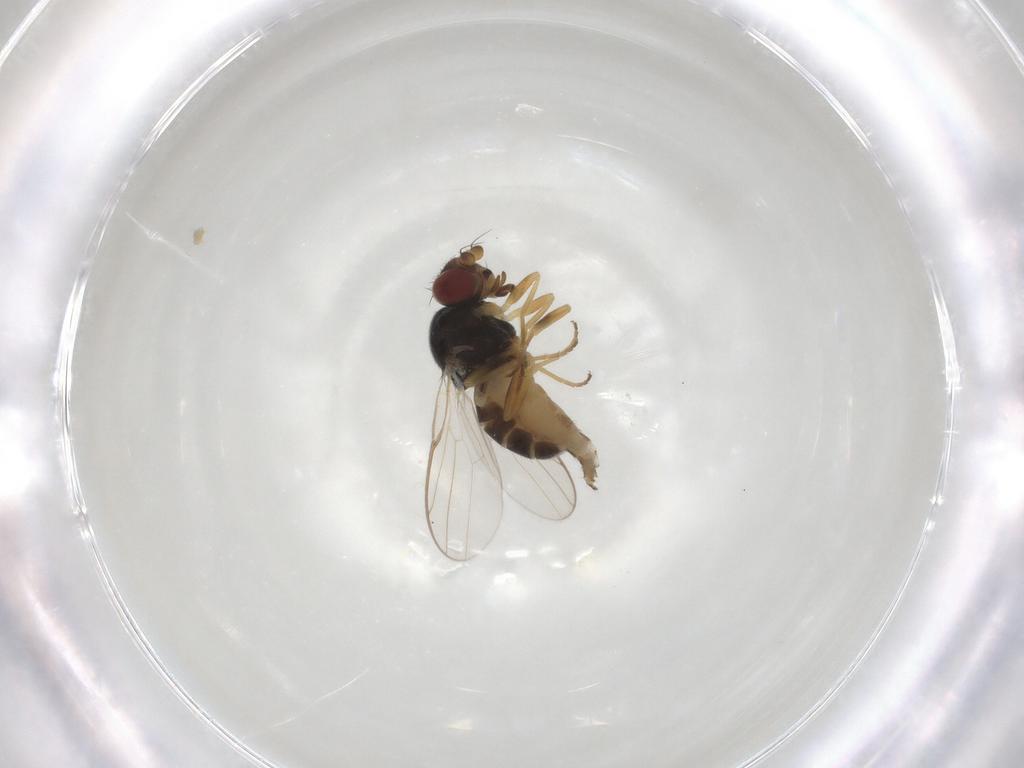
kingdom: Animalia
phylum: Arthropoda
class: Insecta
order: Diptera
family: Chloropidae
